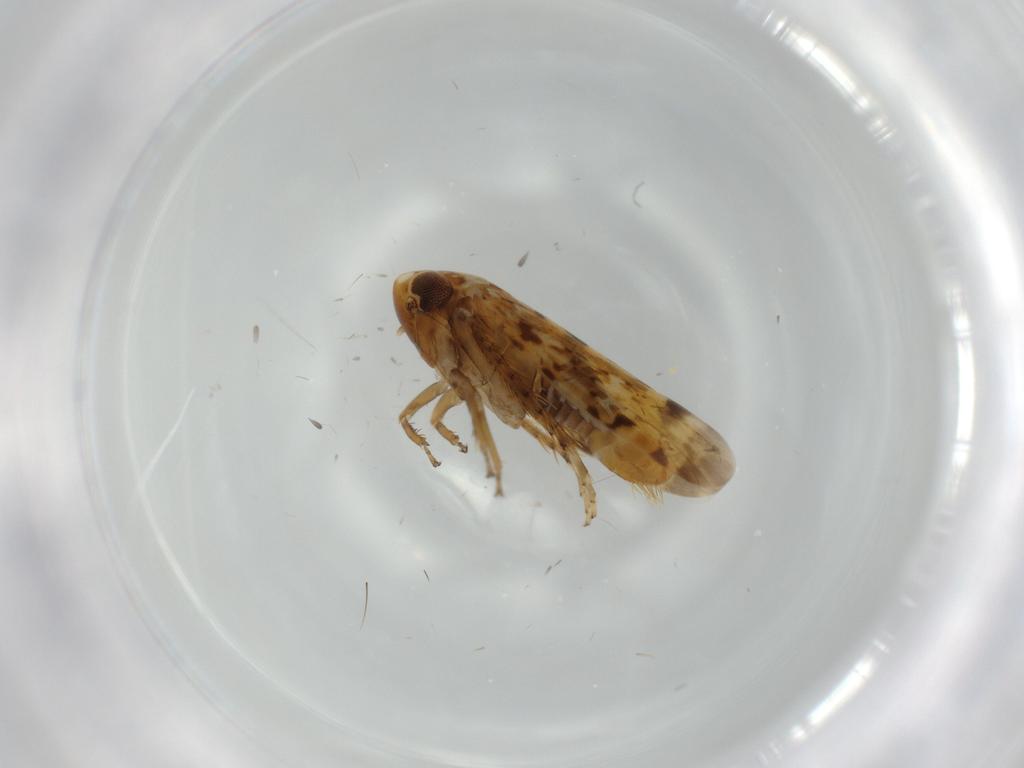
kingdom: Animalia
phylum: Arthropoda
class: Insecta
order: Hemiptera
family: Cicadellidae
